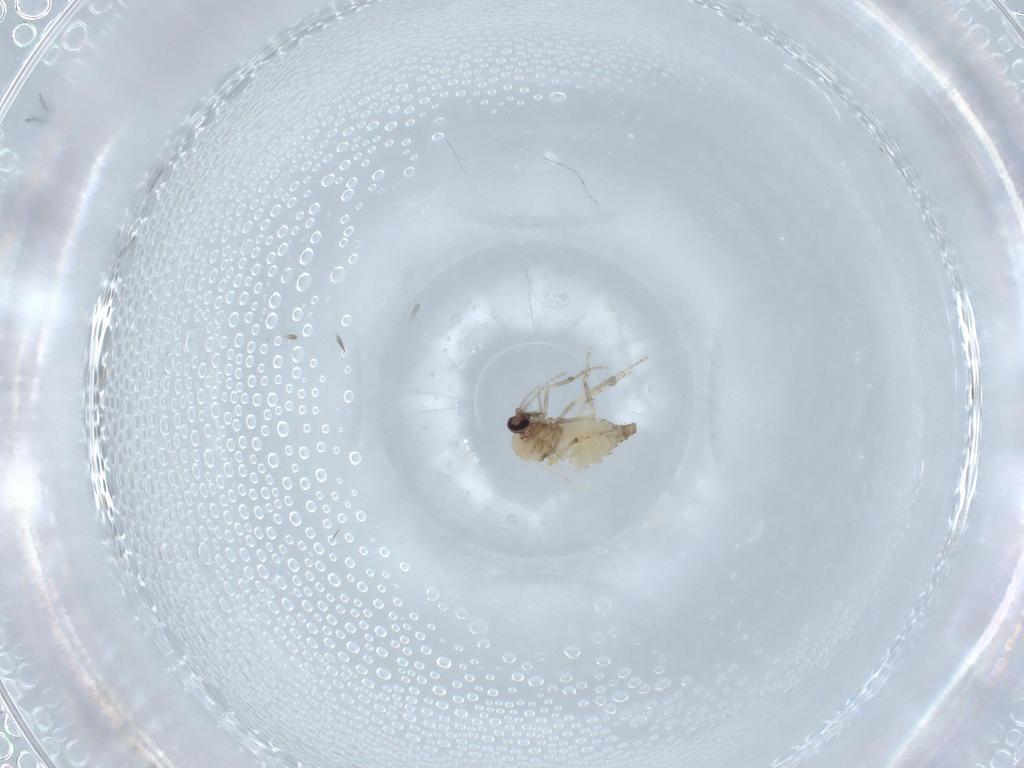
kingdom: Animalia
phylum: Arthropoda
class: Insecta
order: Diptera
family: Ceratopogonidae
